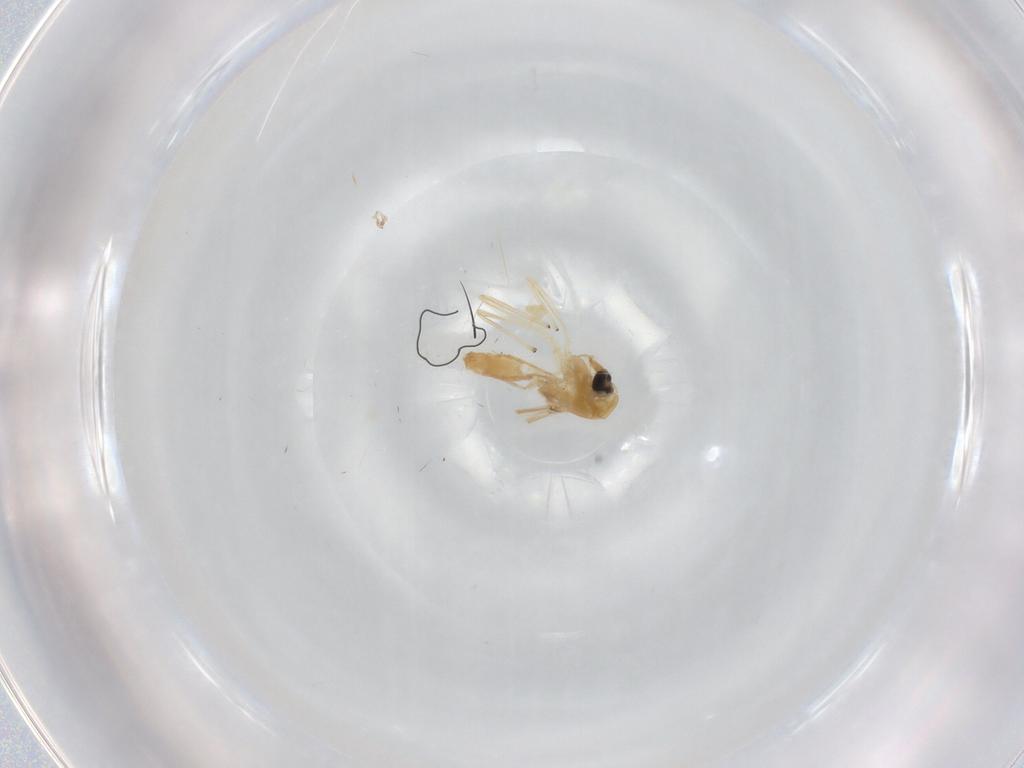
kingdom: Animalia
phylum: Arthropoda
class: Insecta
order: Diptera
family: Glossinidae
